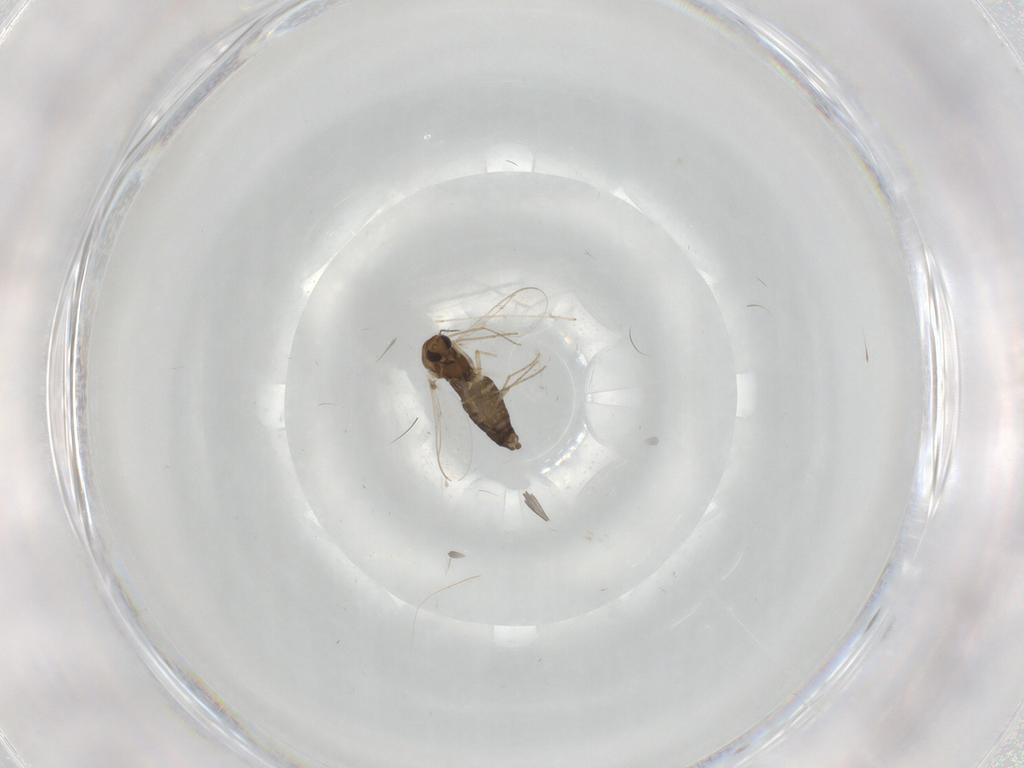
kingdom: Animalia
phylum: Arthropoda
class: Insecta
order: Diptera
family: Chironomidae
